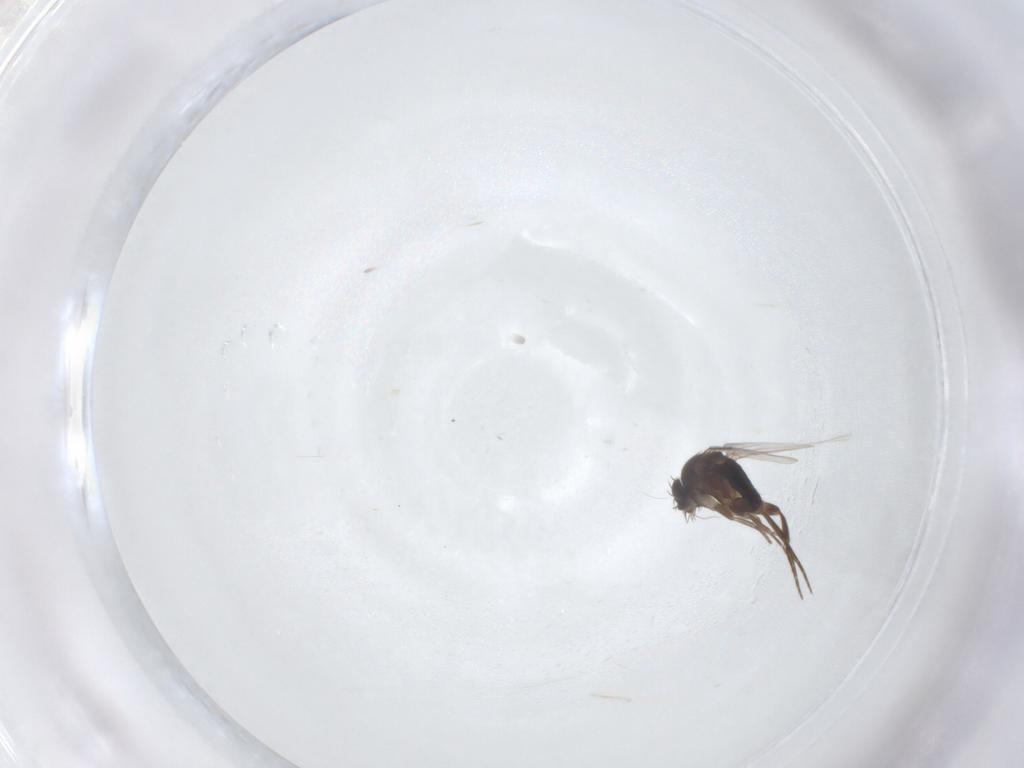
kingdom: Animalia
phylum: Arthropoda
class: Insecta
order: Diptera
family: Phoridae
